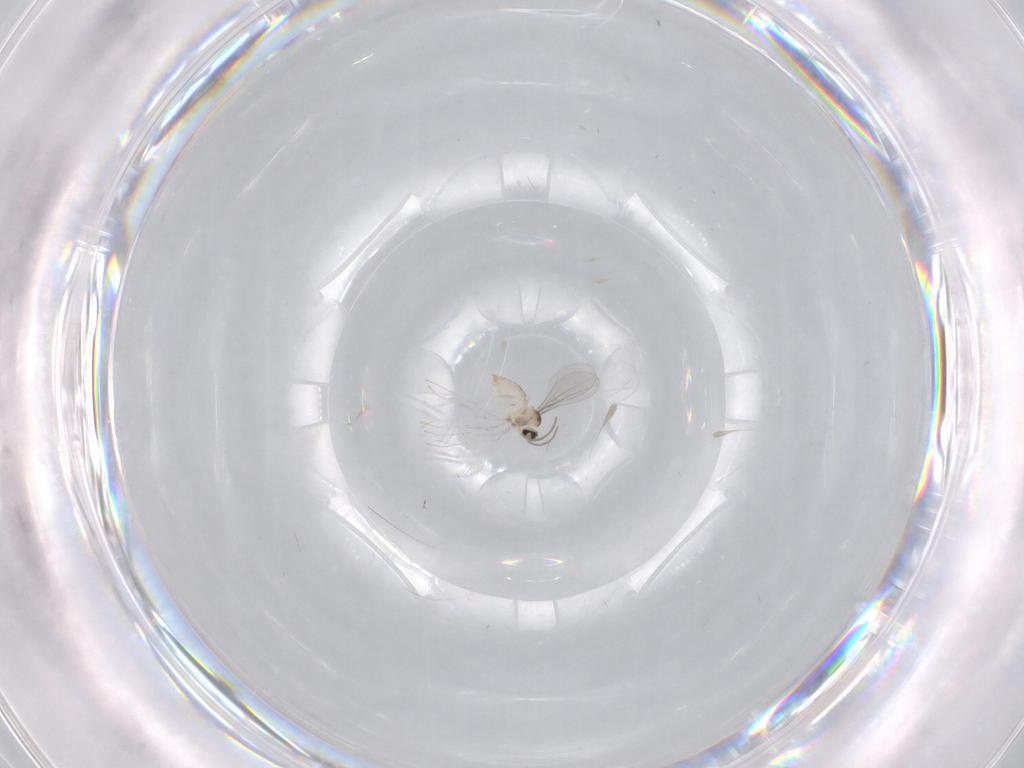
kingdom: Animalia
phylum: Arthropoda
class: Insecta
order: Diptera
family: Cecidomyiidae
